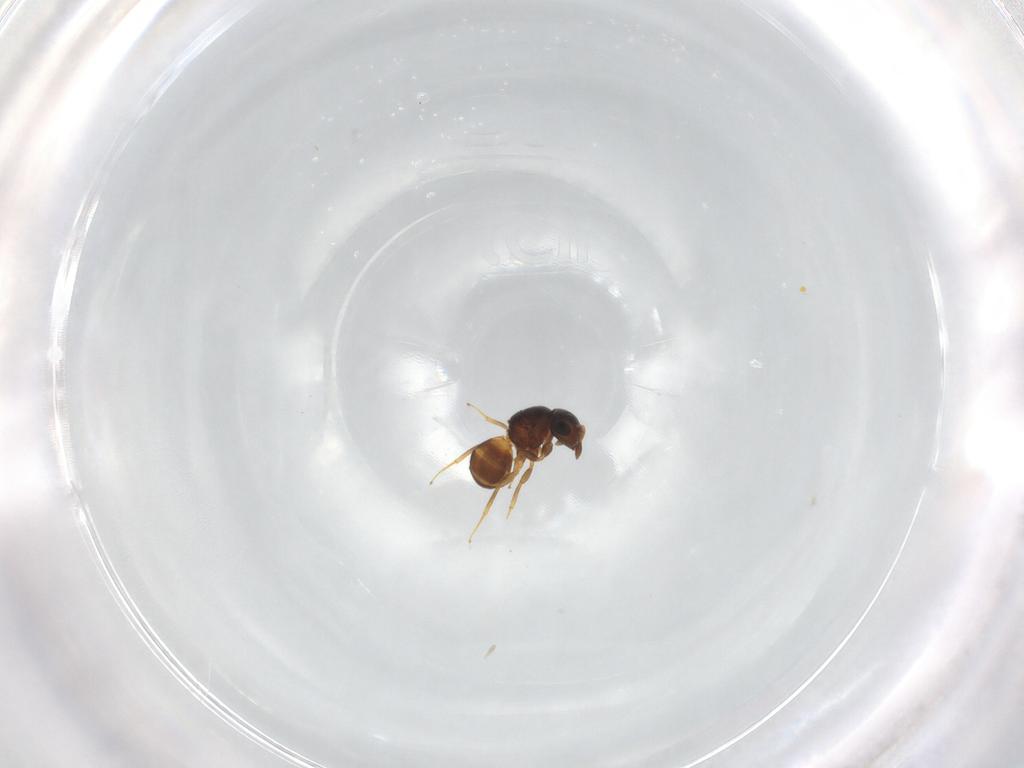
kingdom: Animalia
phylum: Arthropoda
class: Insecta
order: Hymenoptera
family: Scelionidae
